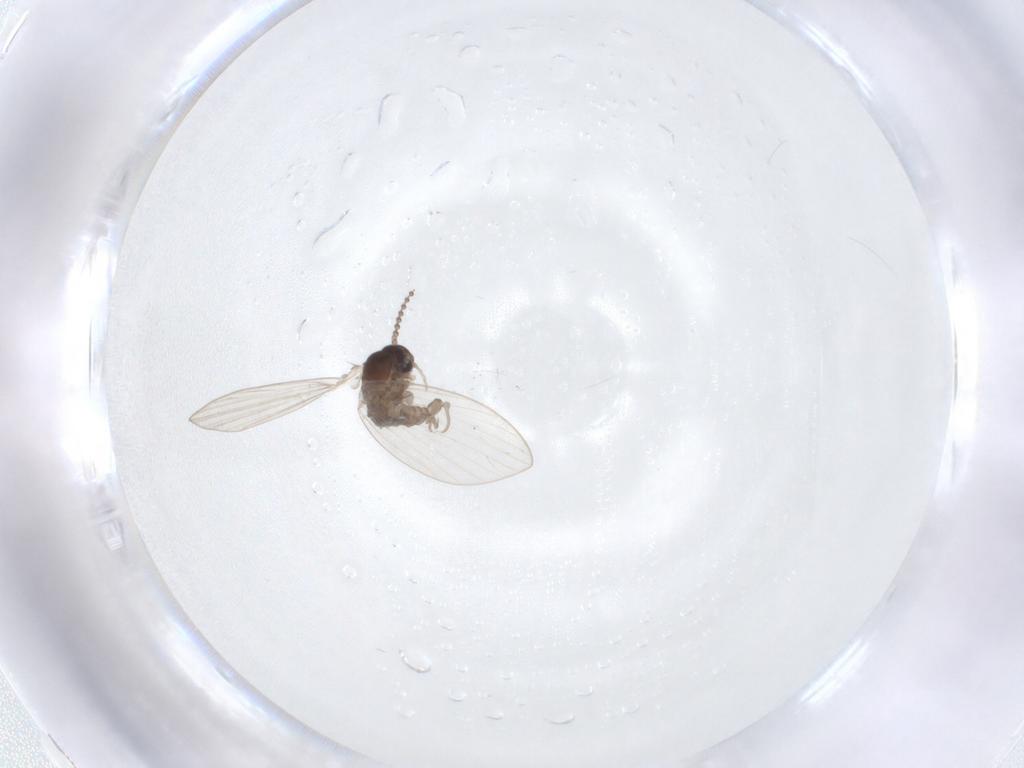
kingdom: Animalia
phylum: Arthropoda
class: Insecta
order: Diptera
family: Psychodidae
